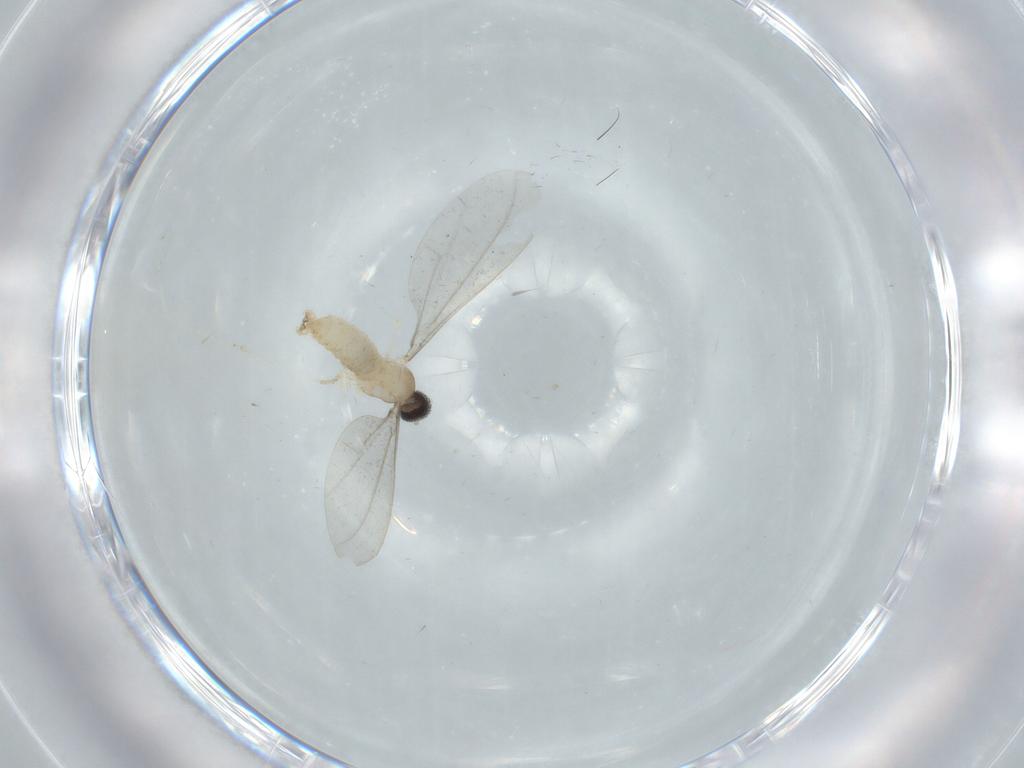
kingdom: Animalia
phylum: Arthropoda
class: Insecta
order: Diptera
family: Cecidomyiidae
